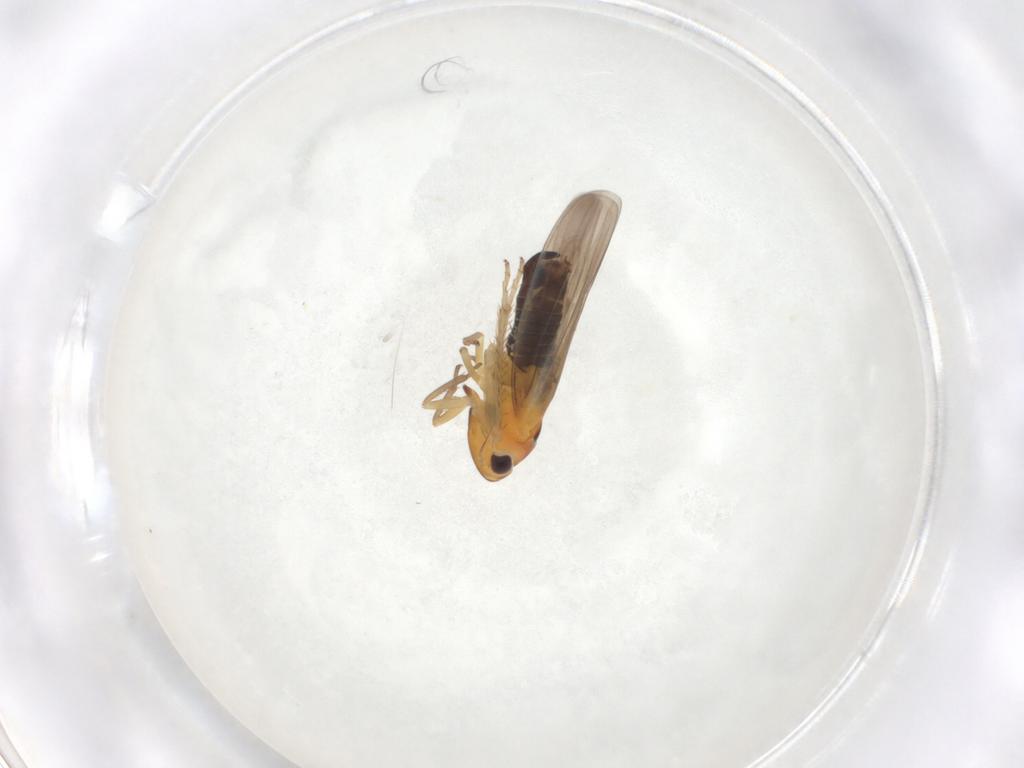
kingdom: Animalia
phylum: Arthropoda
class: Insecta
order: Hemiptera
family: Cicadellidae
